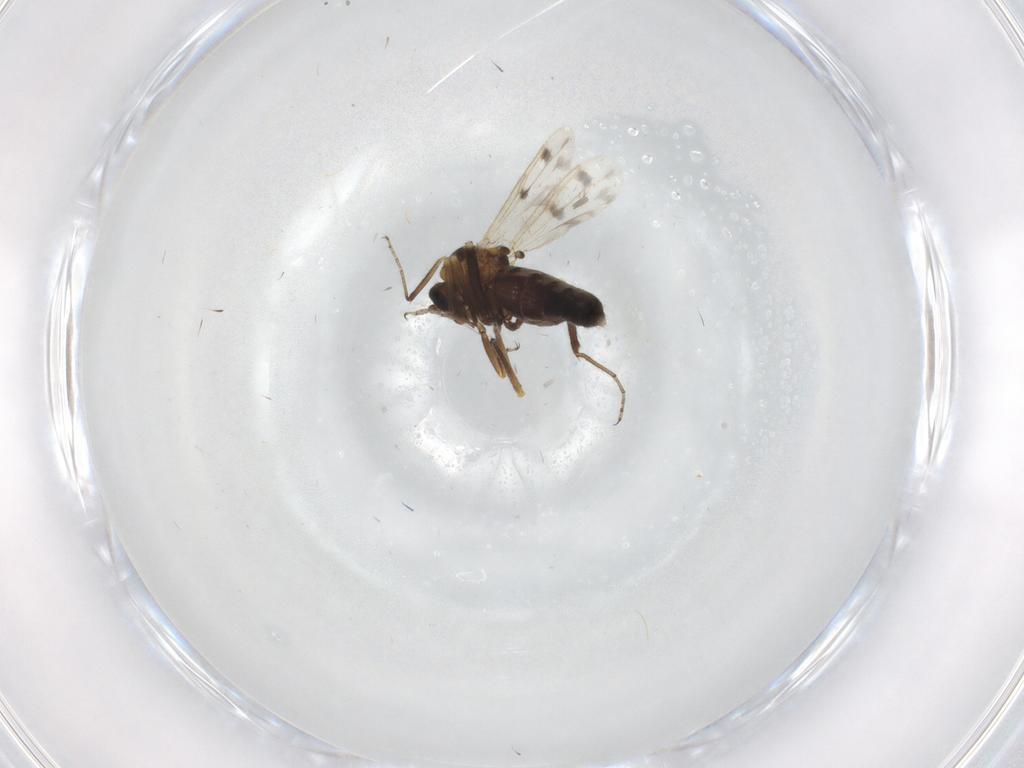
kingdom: Animalia
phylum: Arthropoda
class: Insecta
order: Diptera
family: Ceratopogonidae
